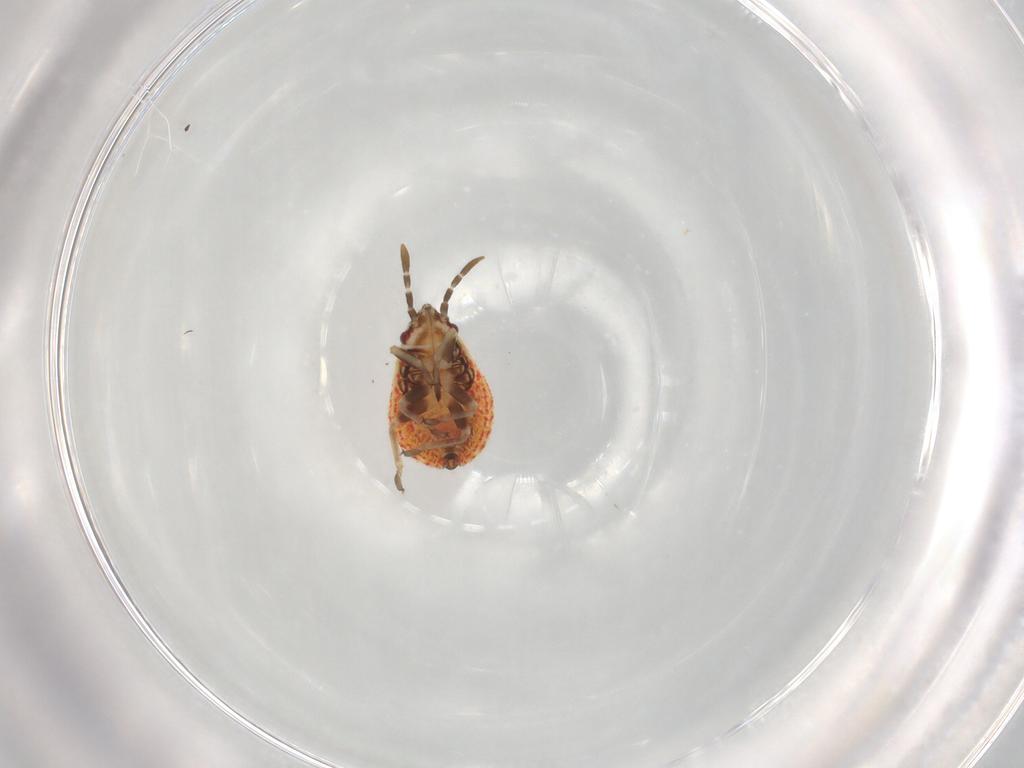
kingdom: Animalia
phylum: Arthropoda
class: Insecta
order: Hemiptera
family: Lygaeidae
